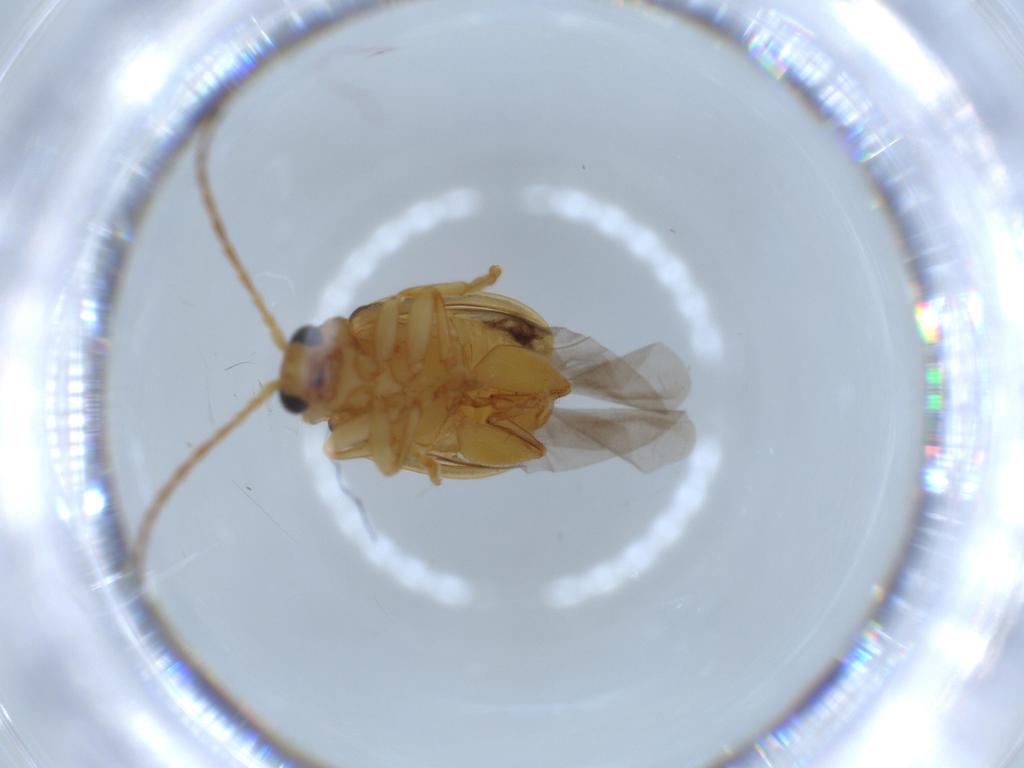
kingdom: Animalia
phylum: Arthropoda
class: Insecta
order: Coleoptera
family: Chrysomelidae
